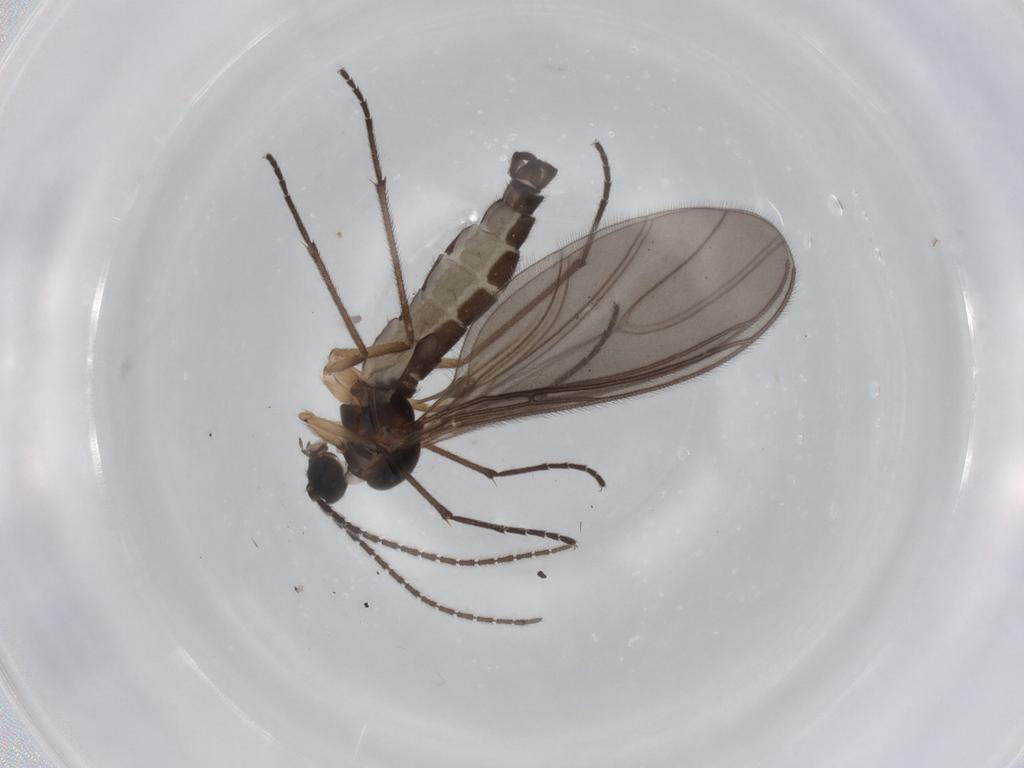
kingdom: Animalia
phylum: Arthropoda
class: Insecta
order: Diptera
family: Sciaridae
